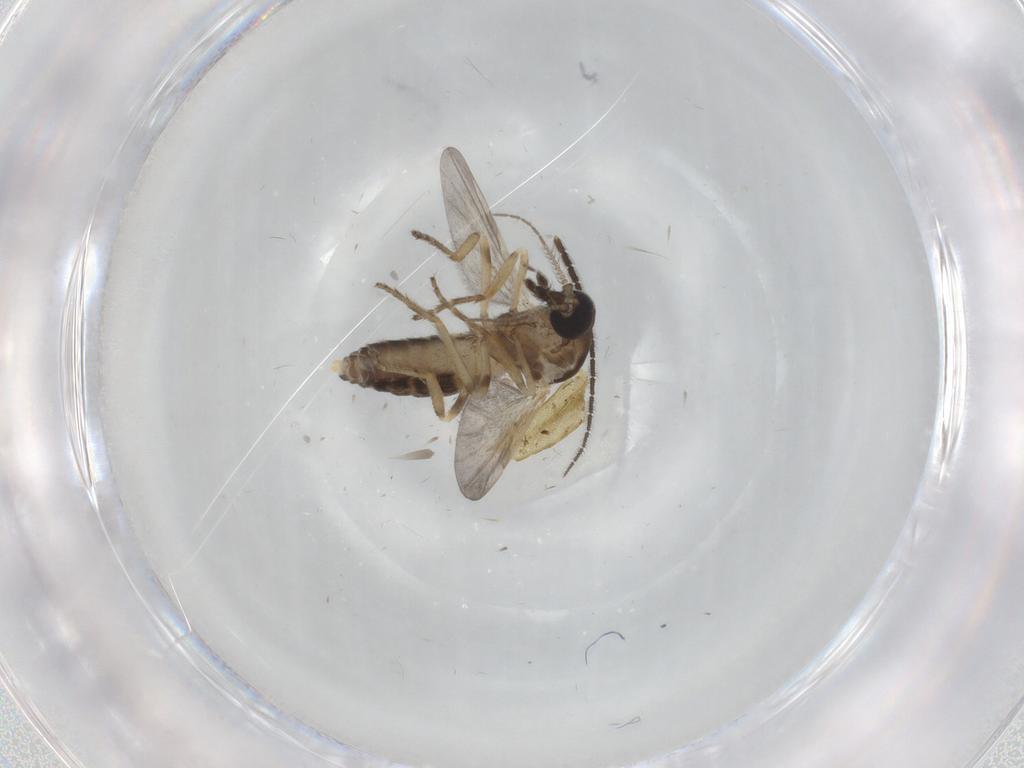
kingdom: Animalia
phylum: Arthropoda
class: Insecta
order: Diptera
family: Ceratopogonidae
